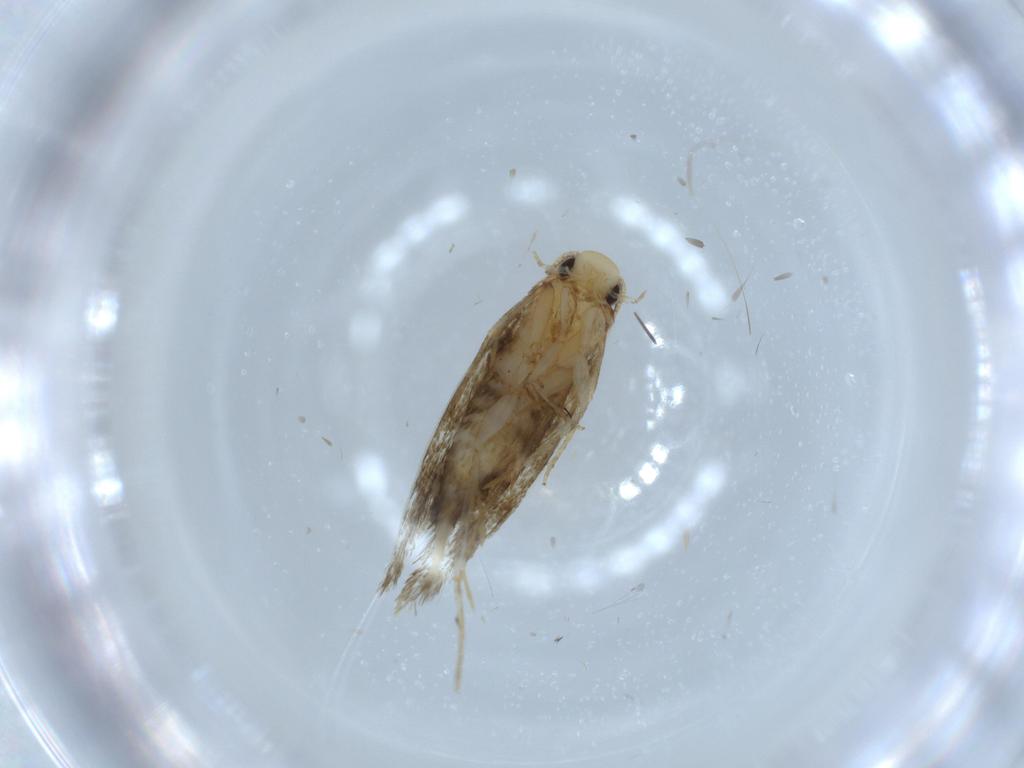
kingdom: Animalia
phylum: Arthropoda
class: Insecta
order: Lepidoptera
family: Tineidae
